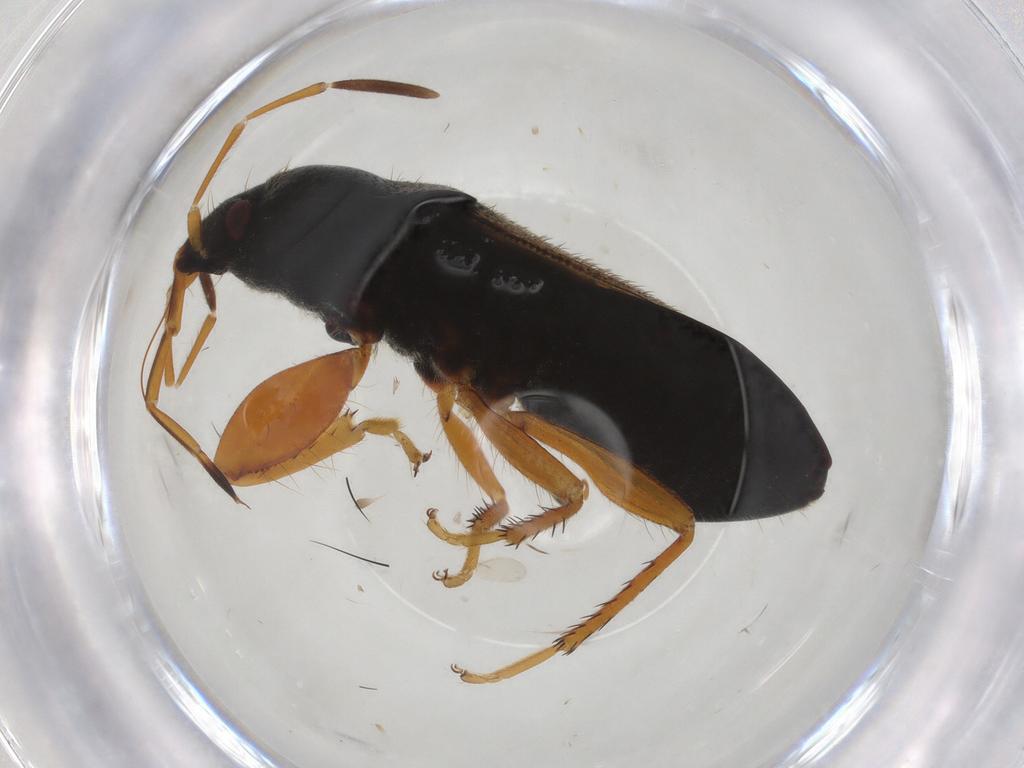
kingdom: Animalia
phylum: Arthropoda
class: Insecta
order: Hemiptera
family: Rhyparochromidae
